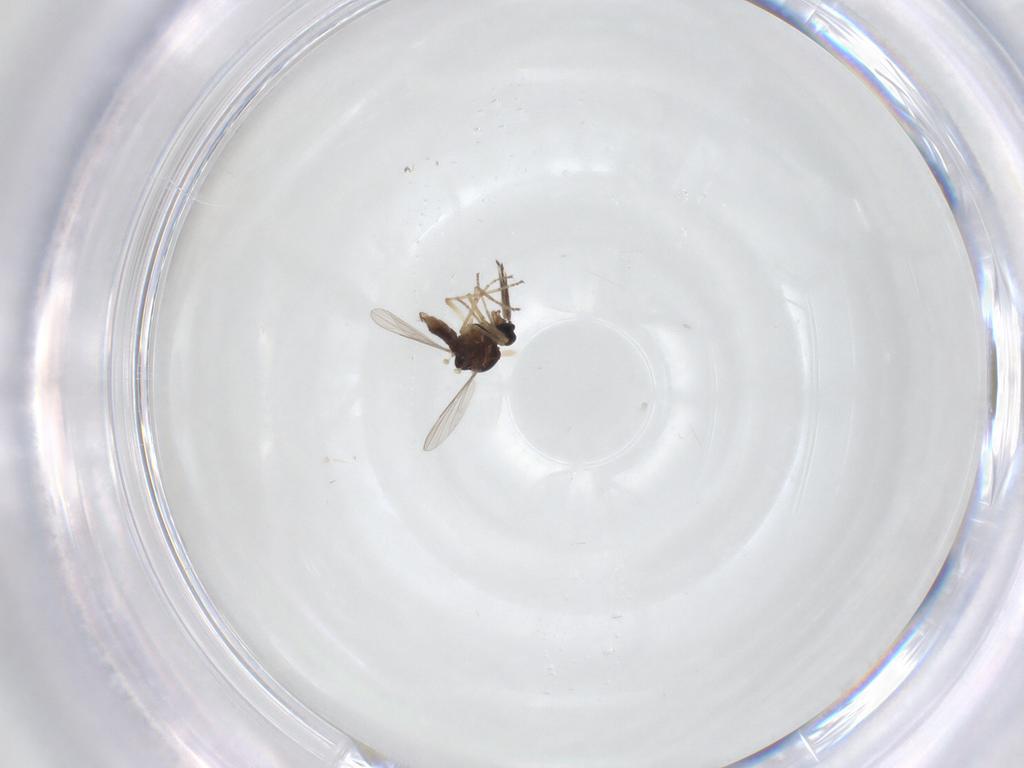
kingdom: Animalia
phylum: Arthropoda
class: Insecta
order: Diptera
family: Ceratopogonidae
